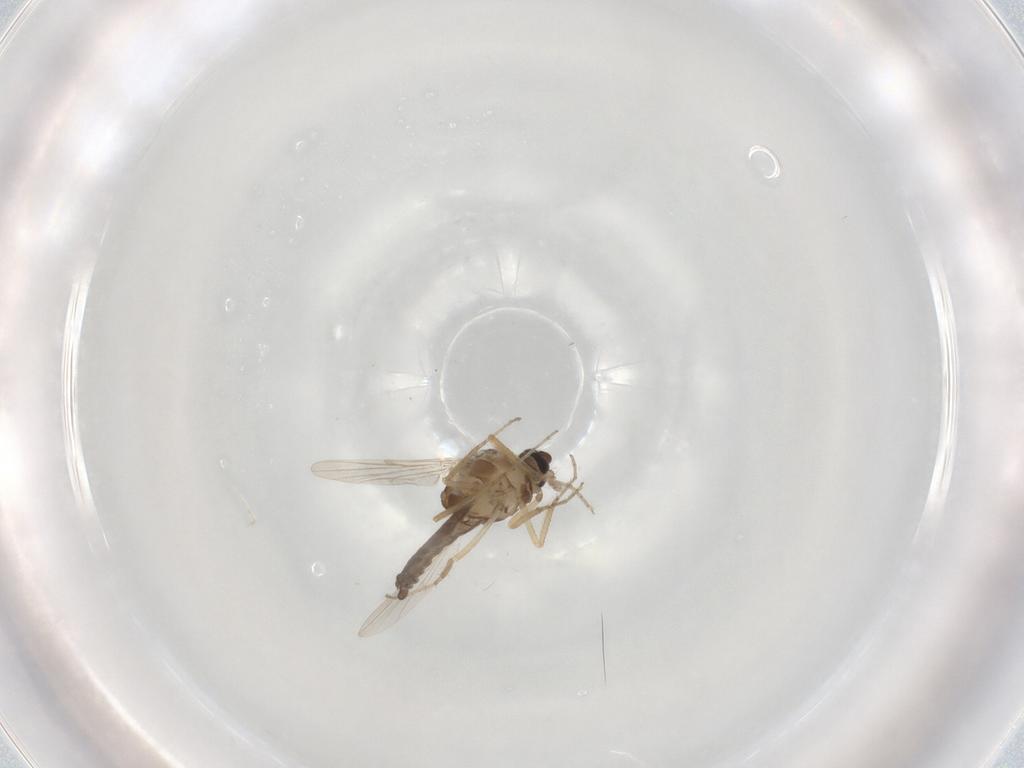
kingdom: Animalia
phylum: Arthropoda
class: Insecta
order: Diptera
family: Ceratopogonidae
